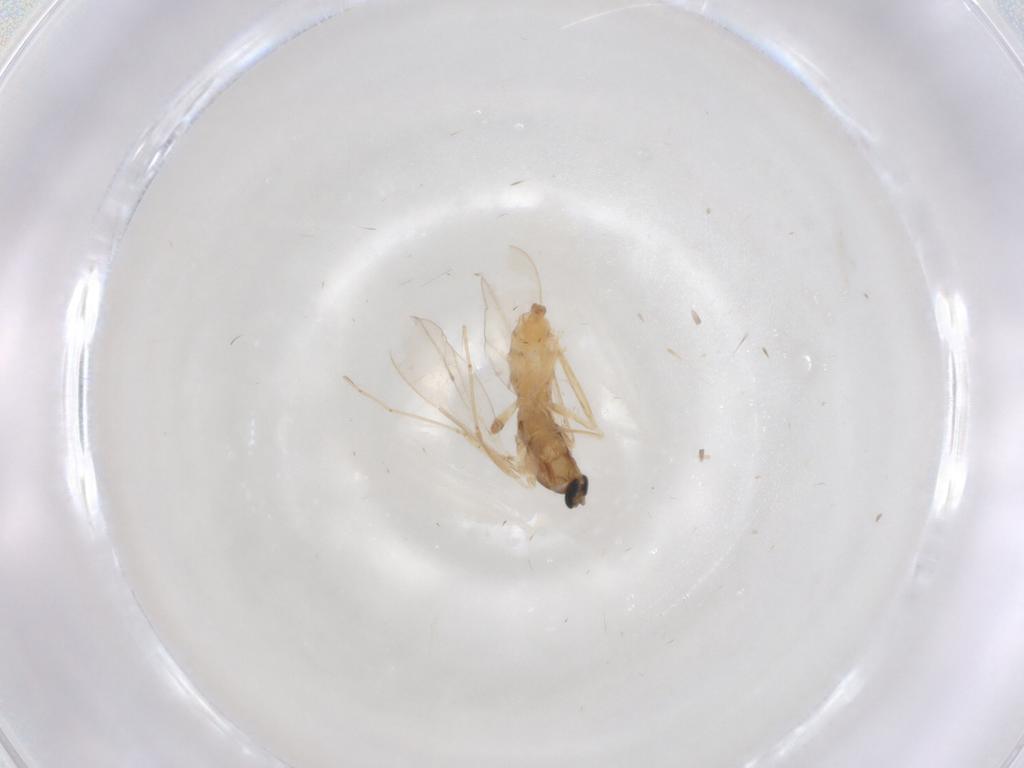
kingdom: Animalia
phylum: Arthropoda
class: Insecta
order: Diptera
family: Cecidomyiidae
